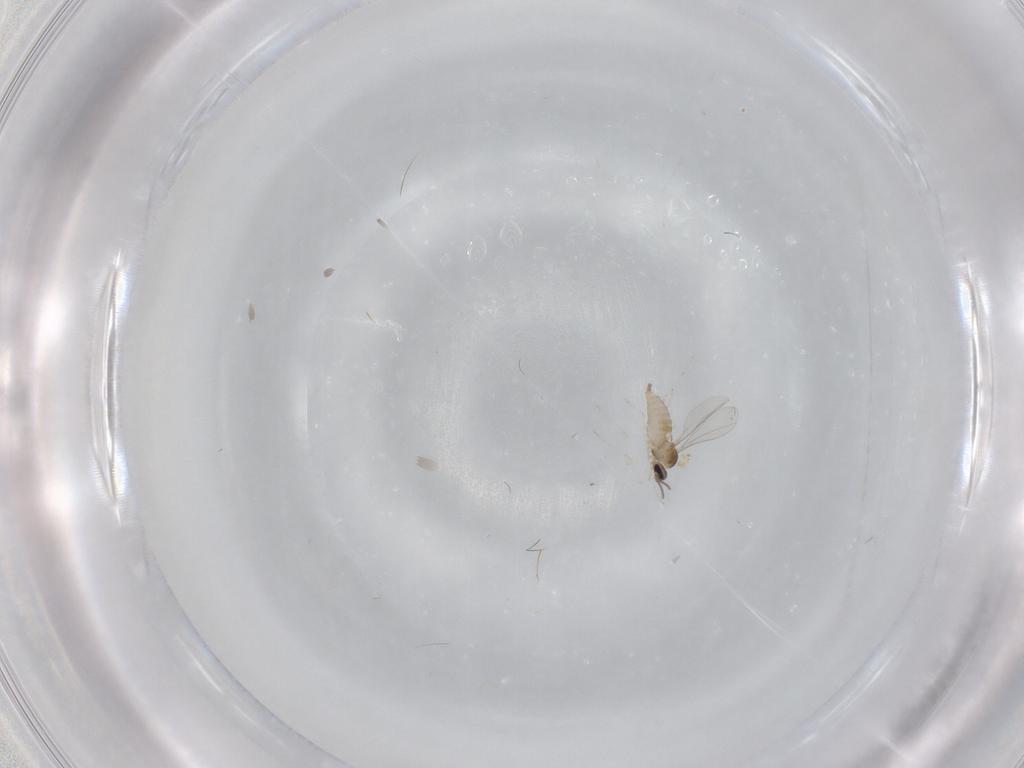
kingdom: Animalia
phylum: Arthropoda
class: Insecta
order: Diptera
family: Cecidomyiidae
